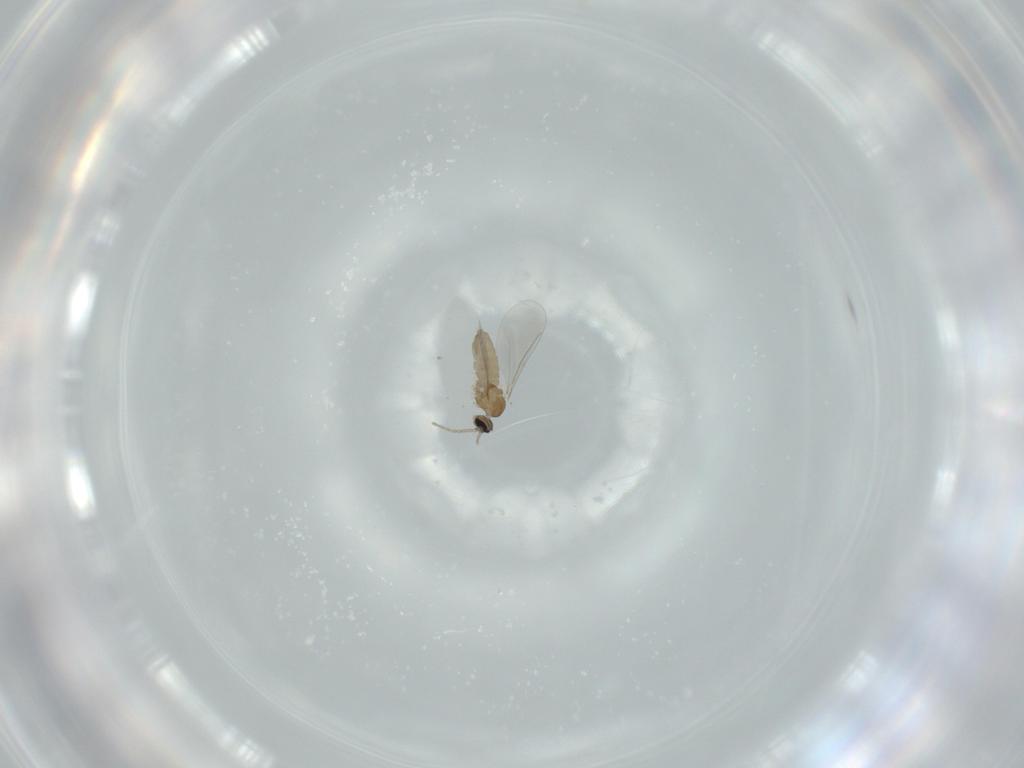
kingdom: Animalia
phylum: Arthropoda
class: Insecta
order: Diptera
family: Cecidomyiidae
